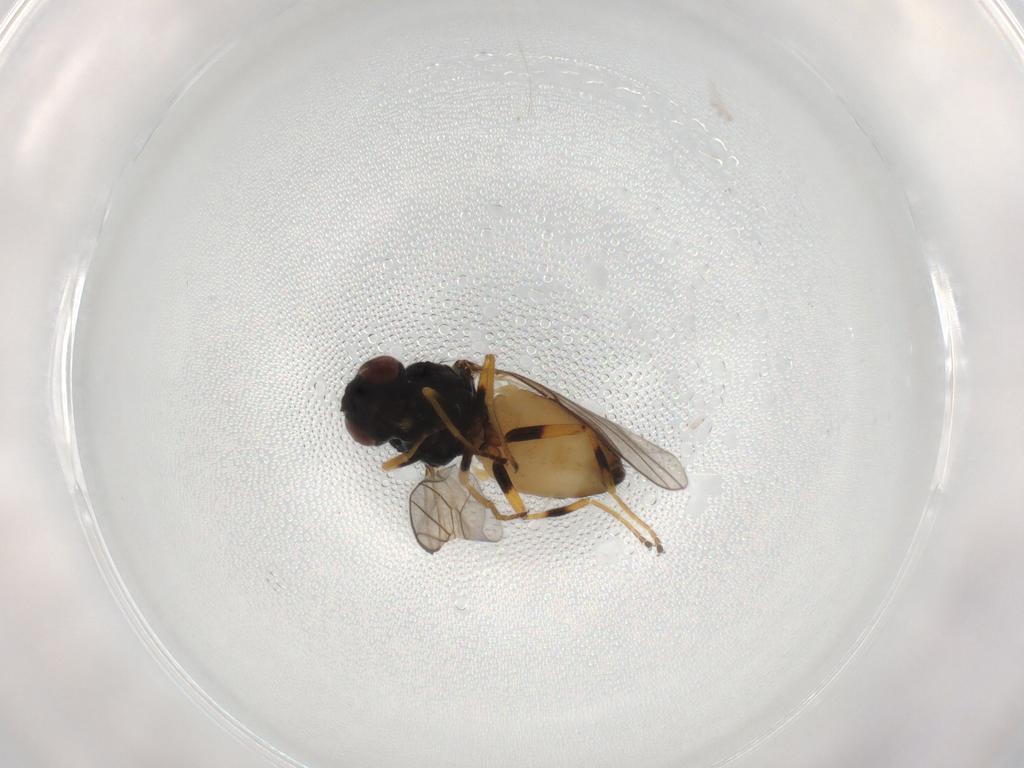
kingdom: Animalia
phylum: Arthropoda
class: Insecta
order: Diptera
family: Chloropidae
